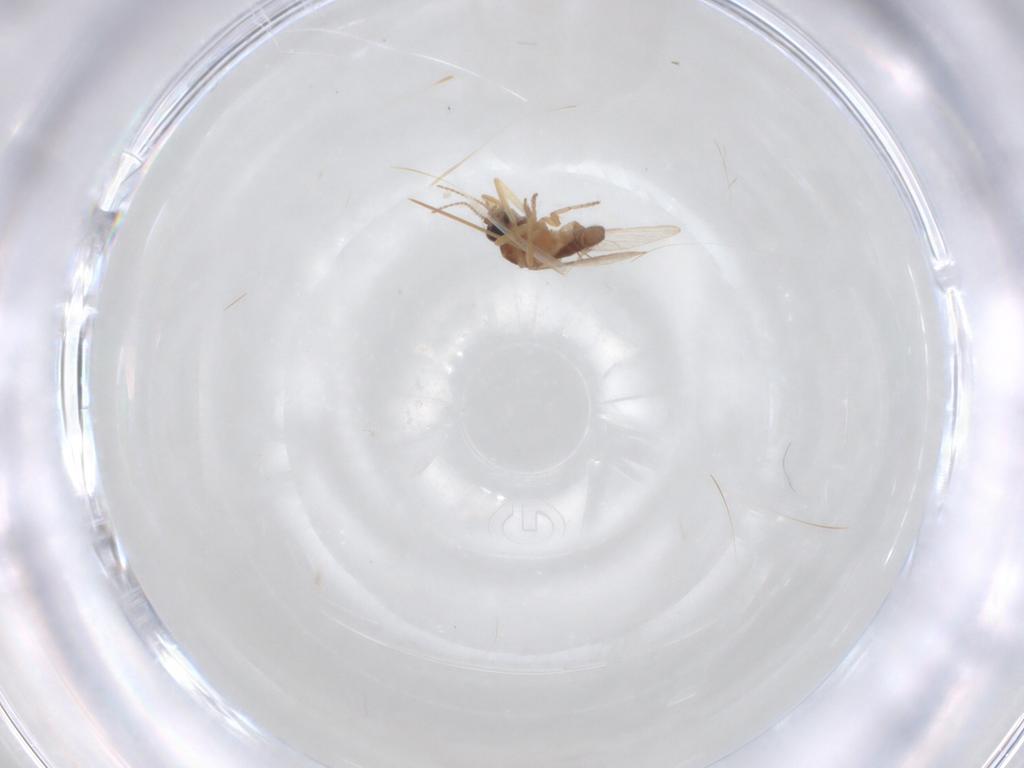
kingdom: Animalia
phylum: Arthropoda
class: Insecta
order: Diptera
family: Chloropidae
